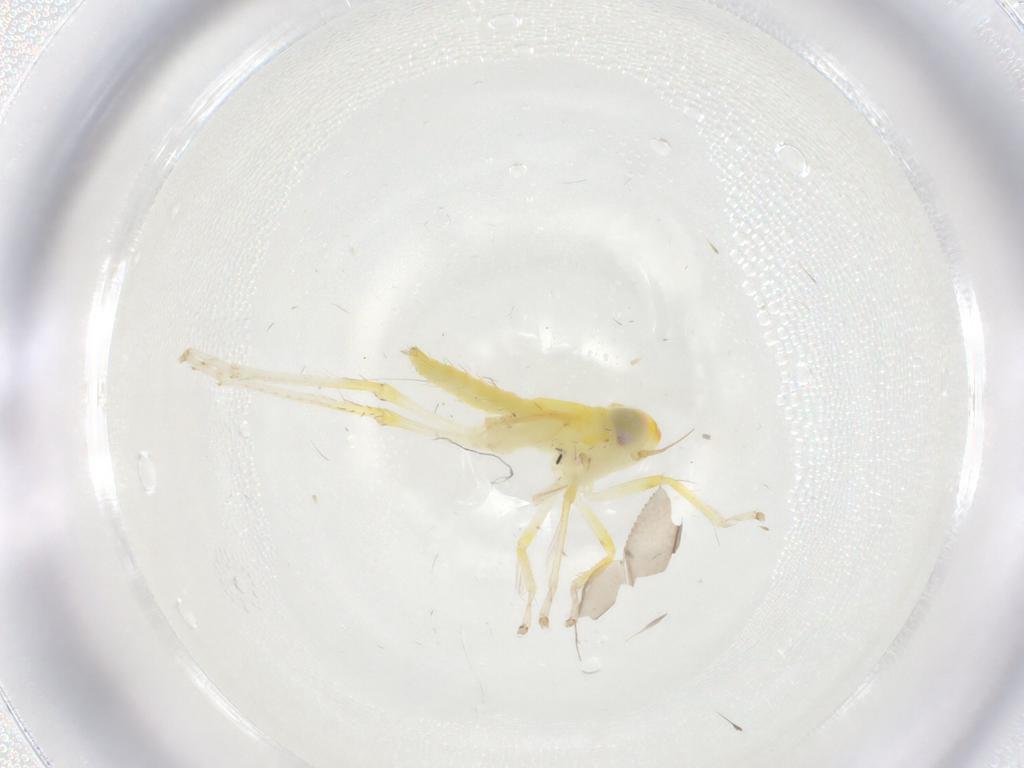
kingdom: Animalia
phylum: Arthropoda
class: Insecta
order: Hemiptera
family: Cicadellidae
